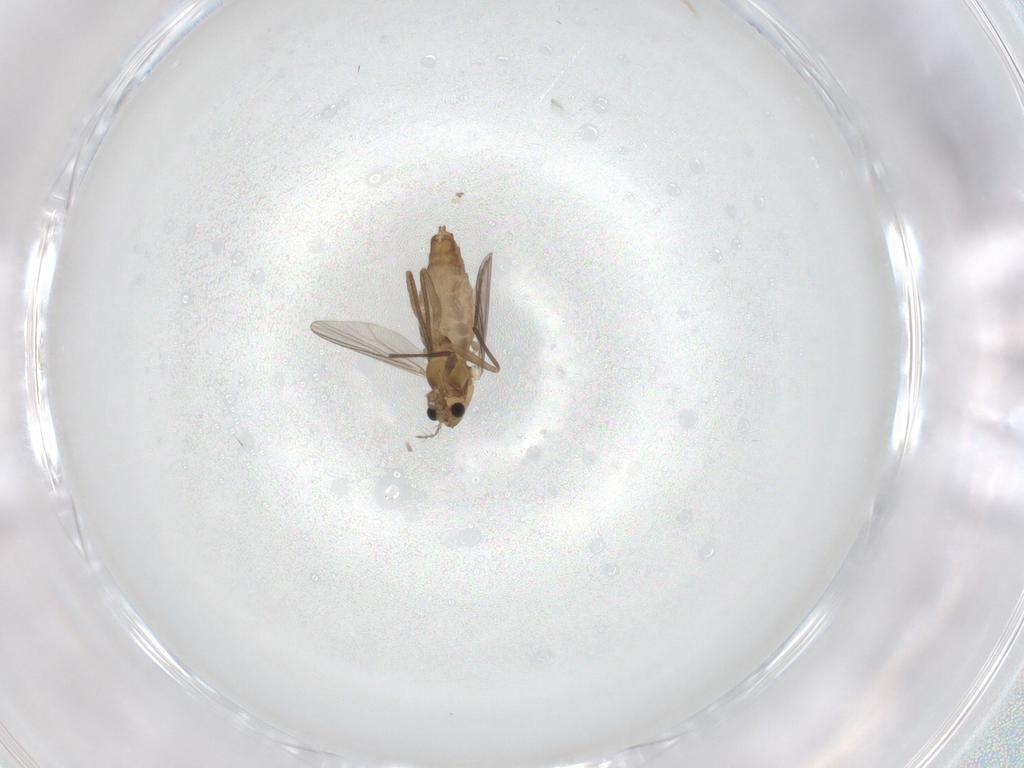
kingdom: Animalia
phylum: Arthropoda
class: Insecta
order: Diptera
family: Chironomidae
